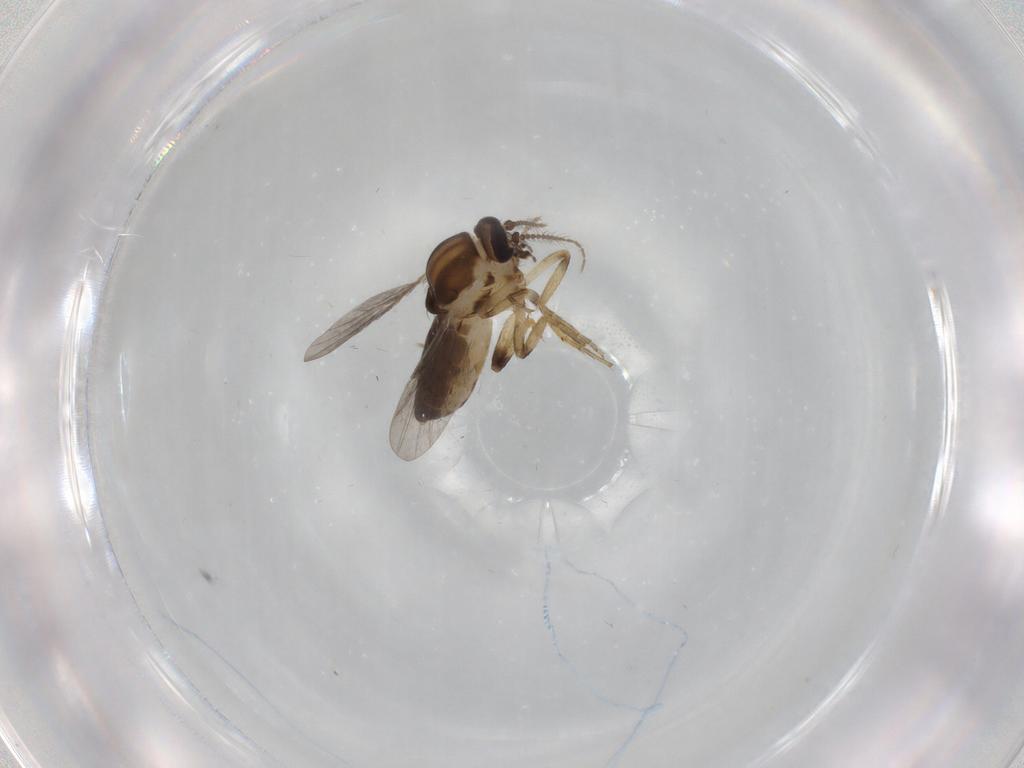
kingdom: Animalia
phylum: Arthropoda
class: Insecta
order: Diptera
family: Ceratopogonidae
